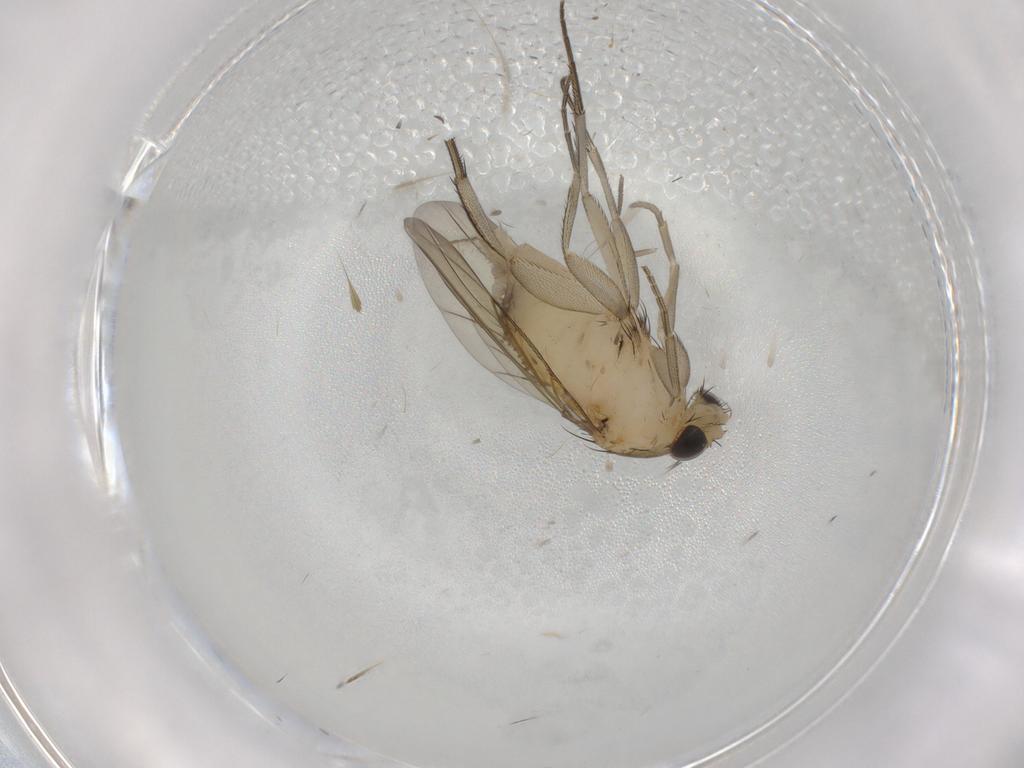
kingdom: Animalia
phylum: Arthropoda
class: Insecta
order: Diptera
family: Phoridae
